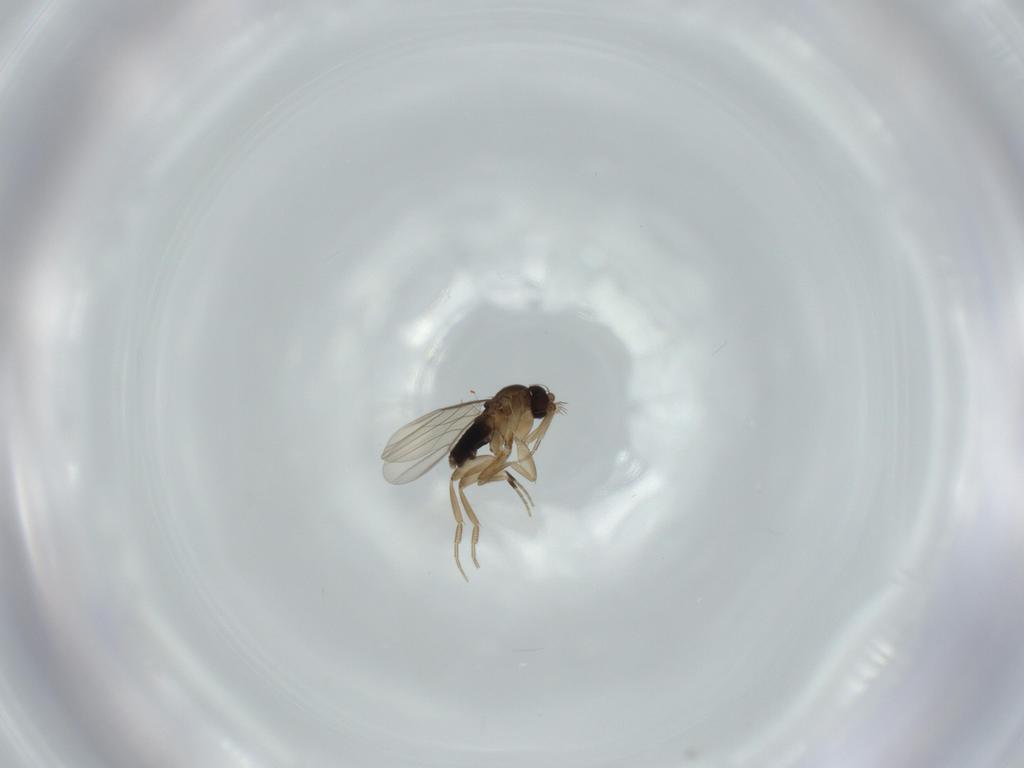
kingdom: Animalia
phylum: Arthropoda
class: Insecta
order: Diptera
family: Phoridae
